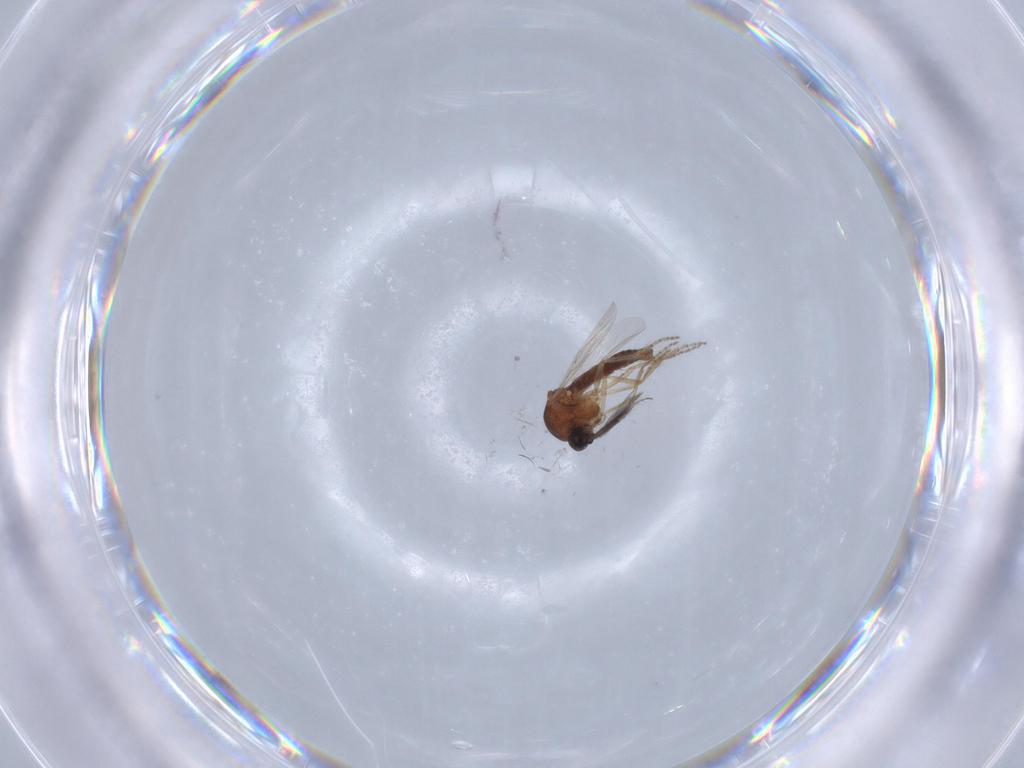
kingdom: Animalia
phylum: Arthropoda
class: Insecta
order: Diptera
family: Ceratopogonidae
